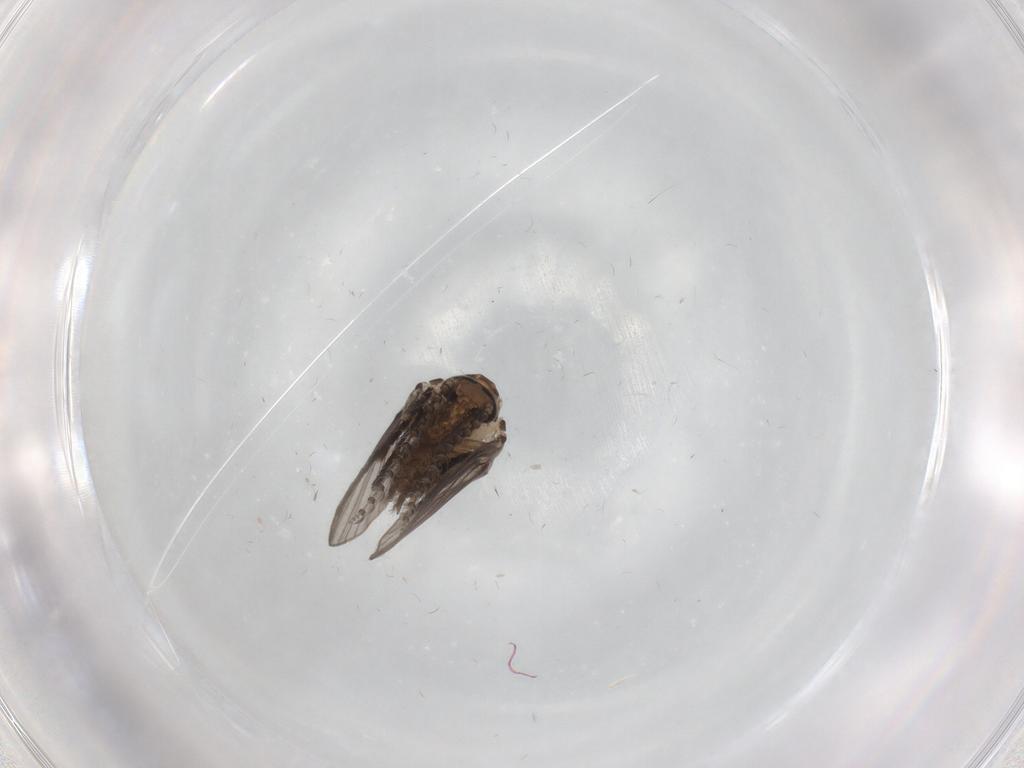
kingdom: Animalia
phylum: Arthropoda
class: Insecta
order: Diptera
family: Psychodidae
